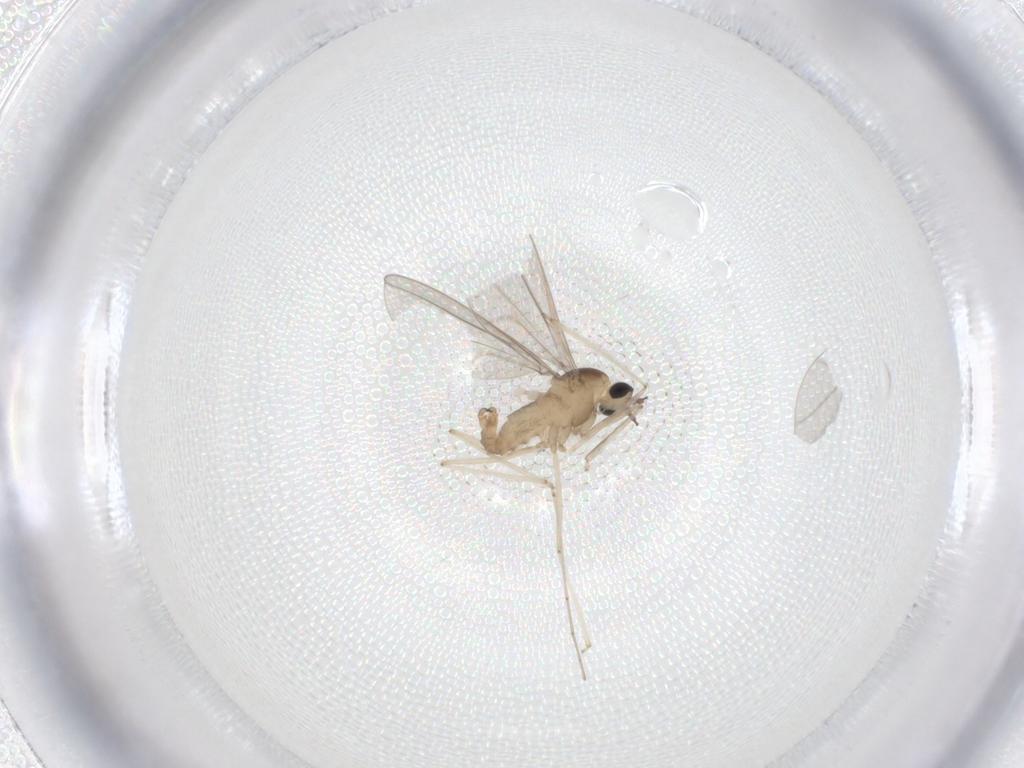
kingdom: Animalia
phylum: Arthropoda
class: Insecta
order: Diptera
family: Cecidomyiidae
